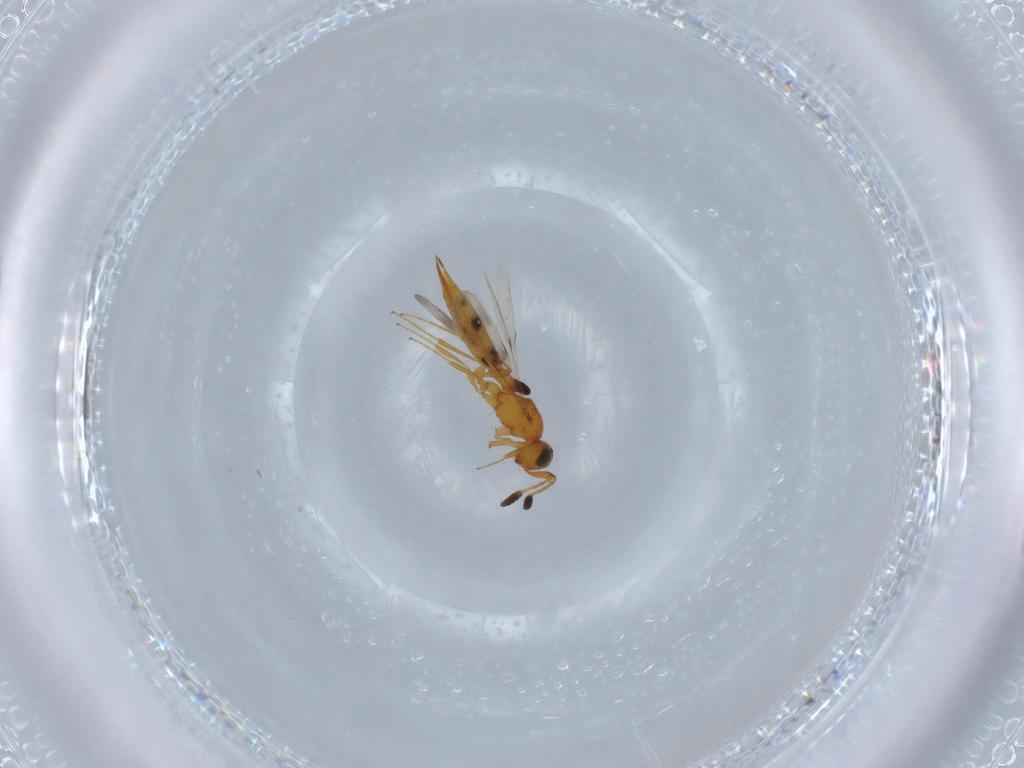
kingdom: Animalia
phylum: Arthropoda
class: Insecta
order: Hymenoptera
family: Scelionidae
